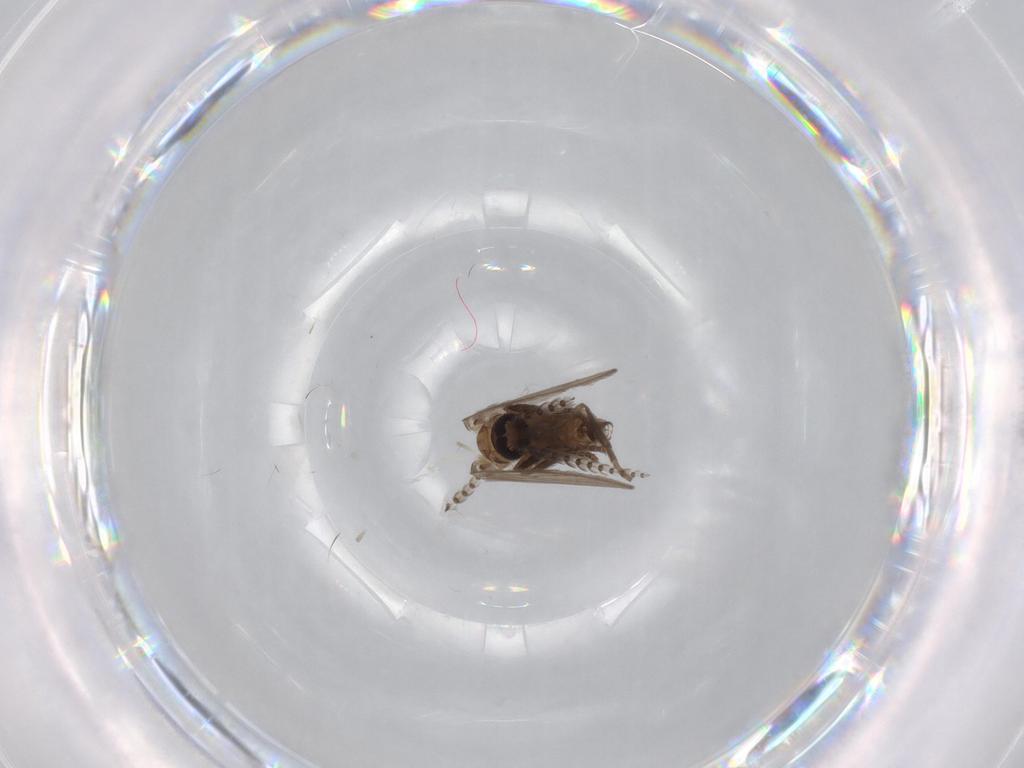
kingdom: Animalia
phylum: Arthropoda
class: Insecta
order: Diptera
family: Psychodidae
